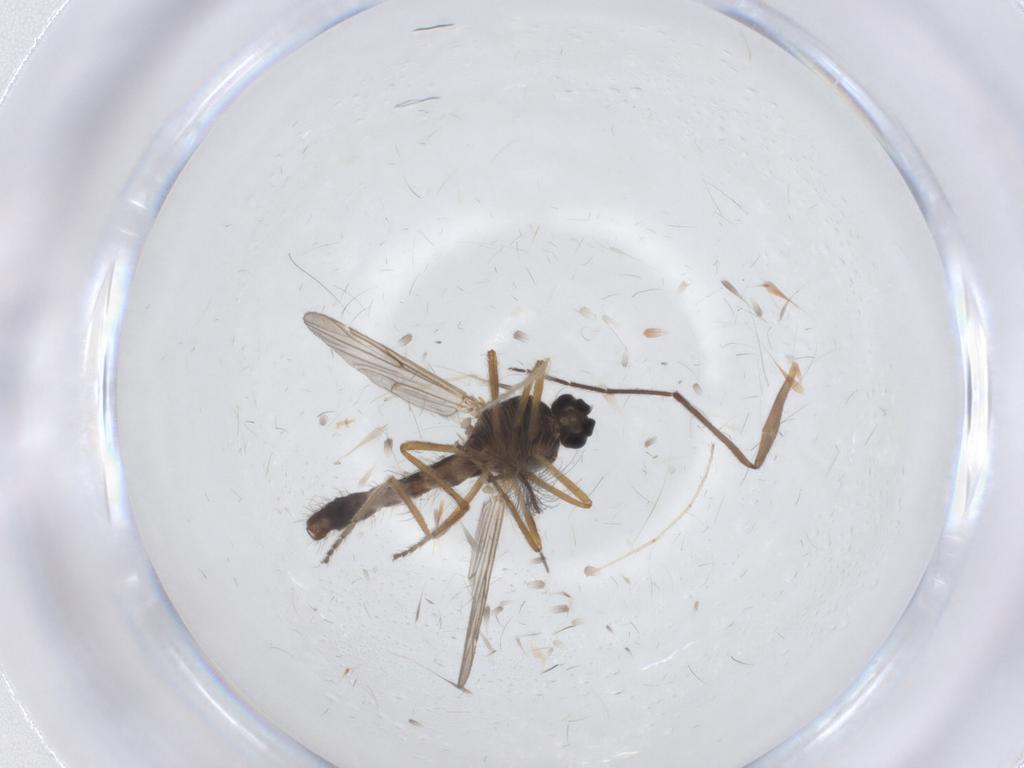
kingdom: Animalia
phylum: Arthropoda
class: Insecta
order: Diptera
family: Ceratopogonidae
